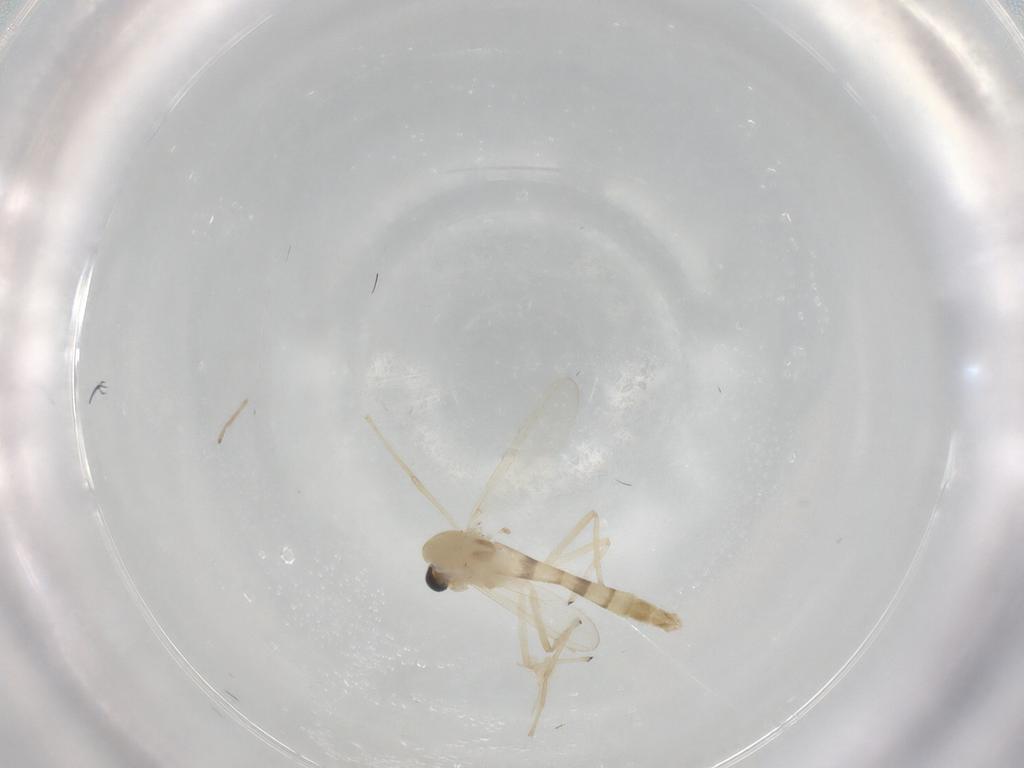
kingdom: Animalia
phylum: Arthropoda
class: Insecta
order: Diptera
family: Chironomidae
